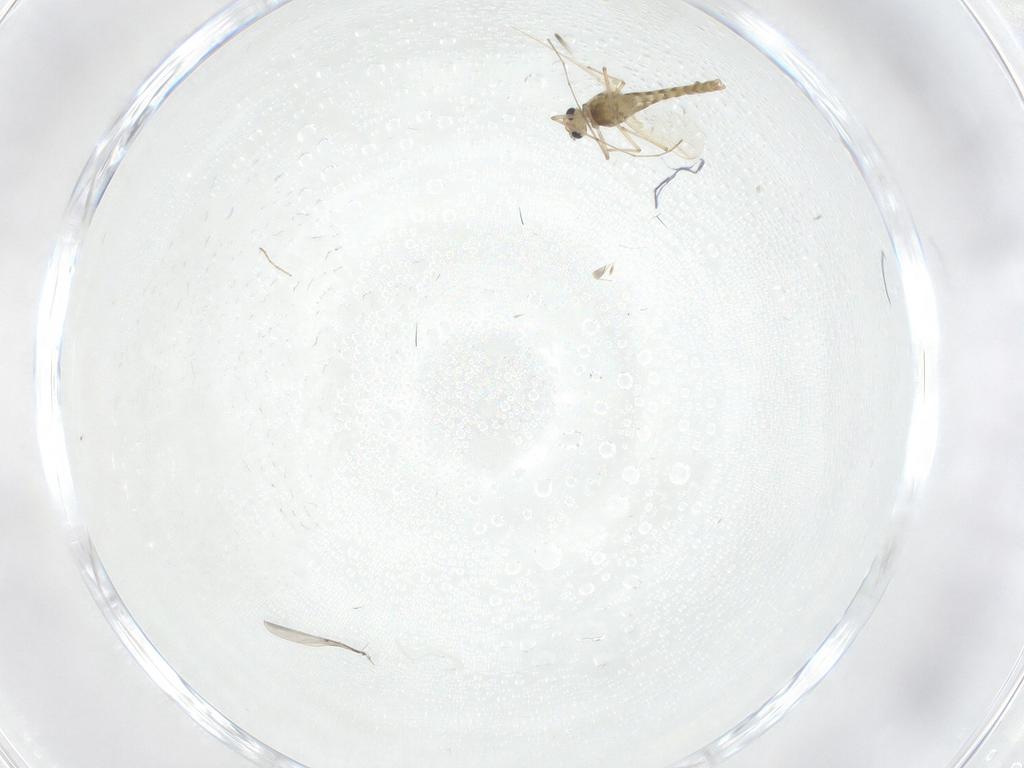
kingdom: Animalia
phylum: Arthropoda
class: Insecta
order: Diptera
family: Chironomidae
